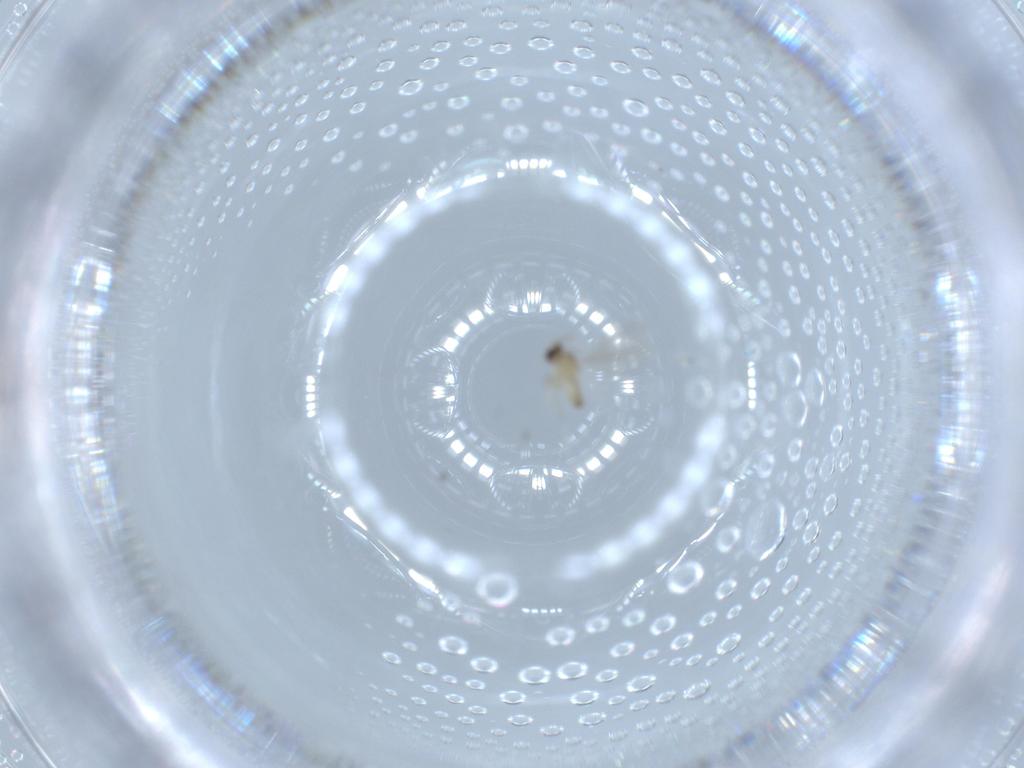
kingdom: Animalia
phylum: Arthropoda
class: Insecta
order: Diptera
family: Cecidomyiidae
